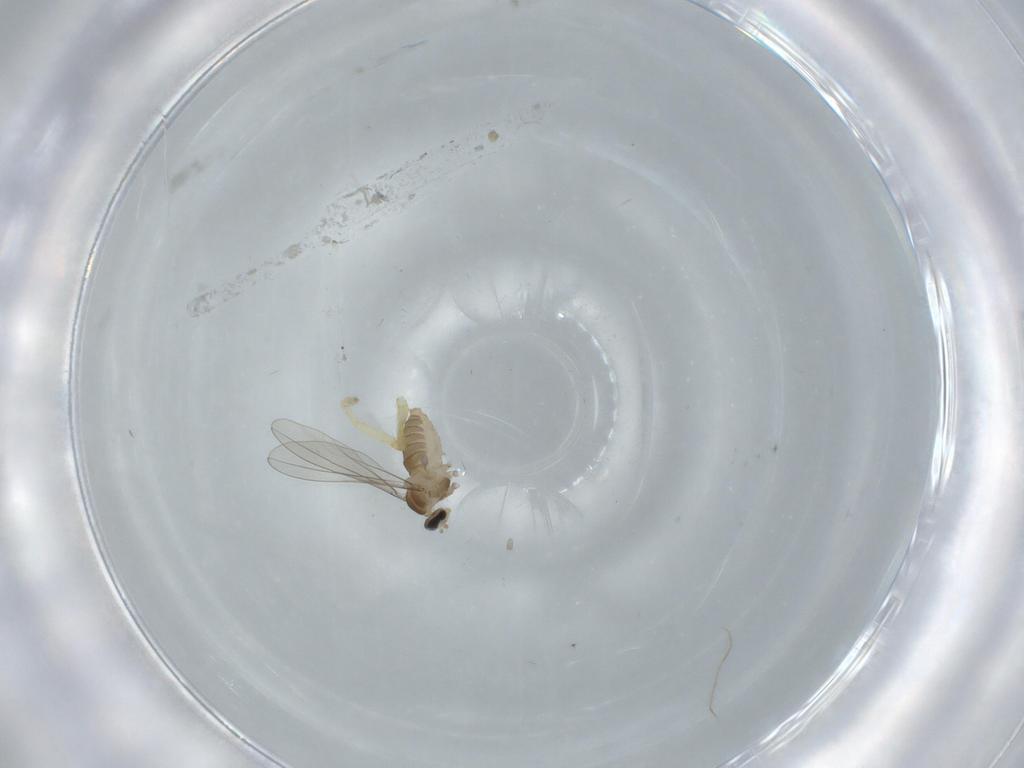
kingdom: Animalia
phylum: Arthropoda
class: Insecta
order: Diptera
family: Cecidomyiidae
